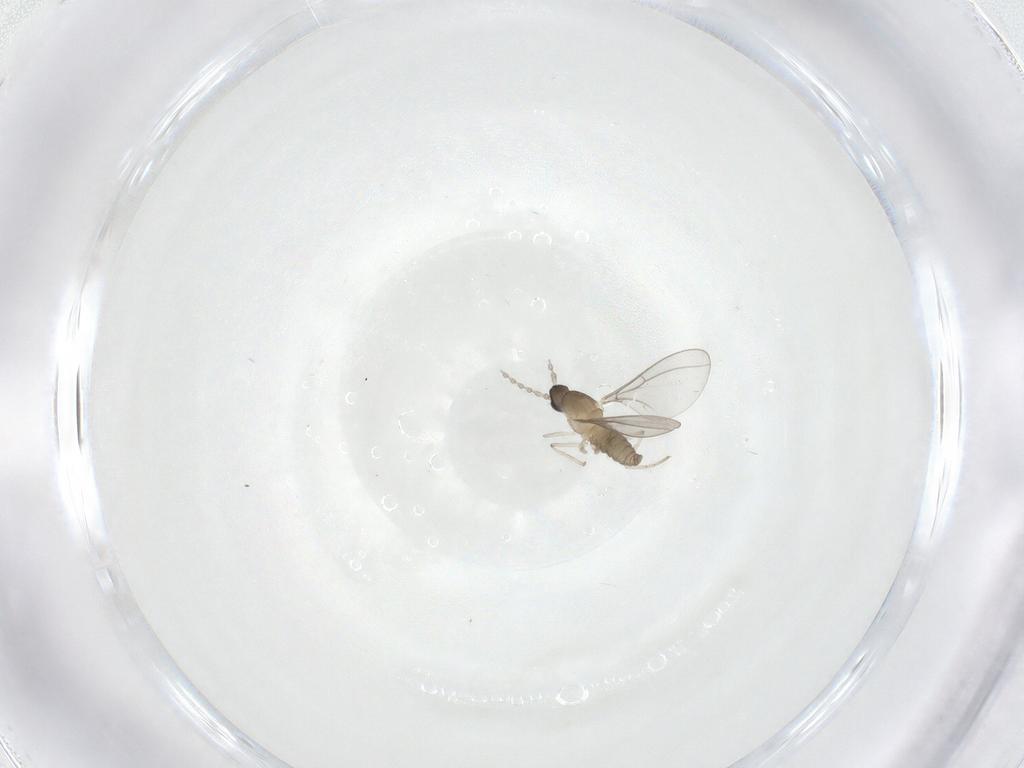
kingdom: Animalia
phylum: Arthropoda
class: Insecta
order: Diptera
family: Cecidomyiidae
